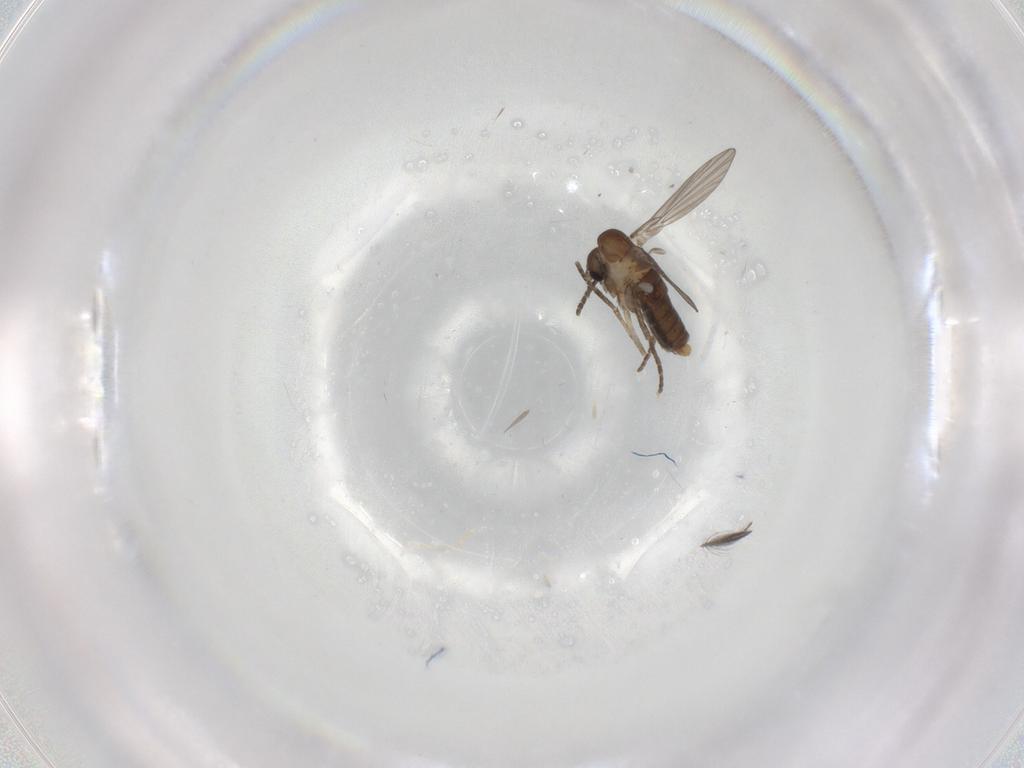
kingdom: Animalia
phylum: Arthropoda
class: Insecta
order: Diptera
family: Ceratopogonidae
